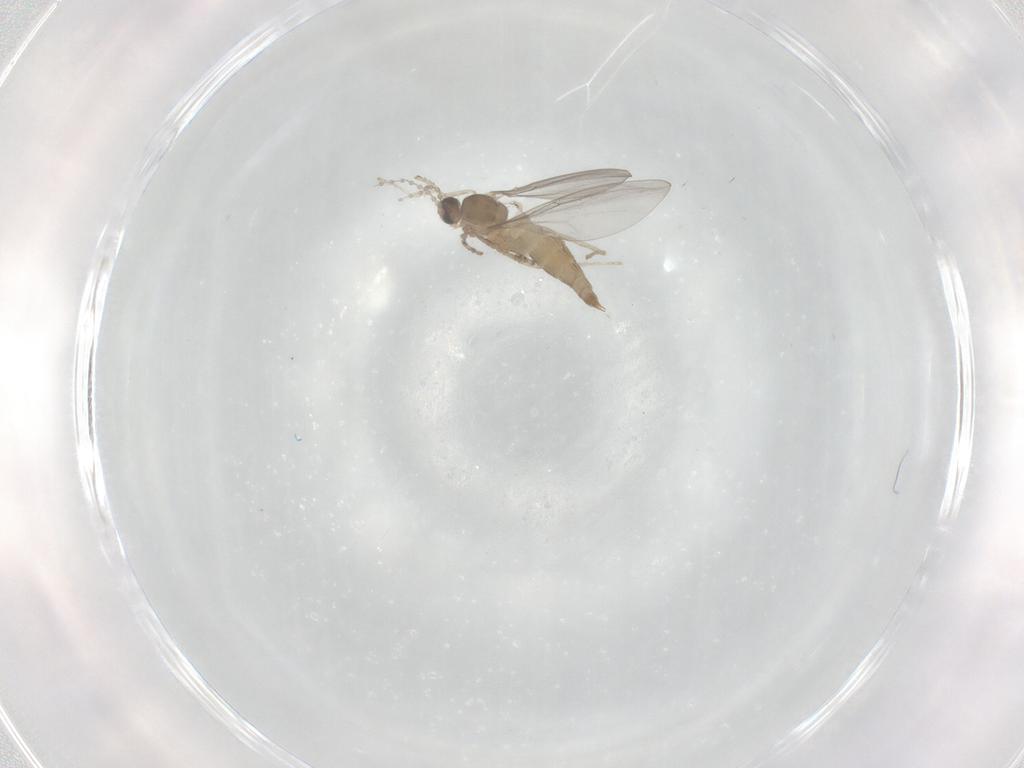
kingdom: Animalia
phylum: Arthropoda
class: Insecta
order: Diptera
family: Cecidomyiidae
